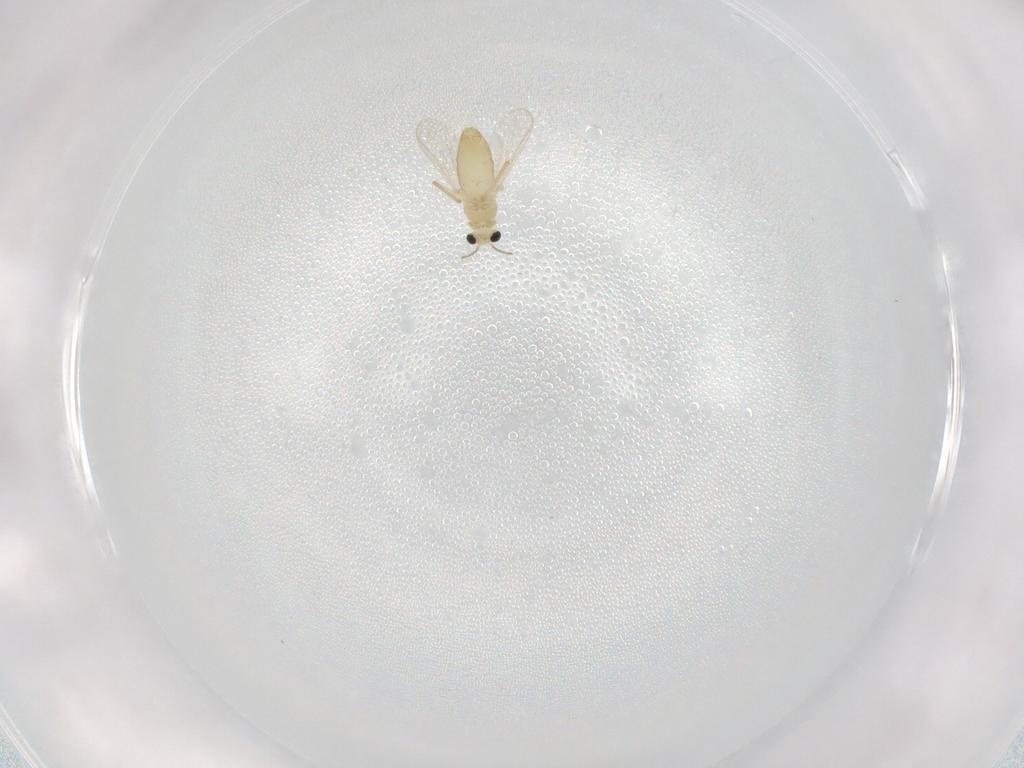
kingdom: Animalia
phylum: Arthropoda
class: Insecta
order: Diptera
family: Chironomidae
